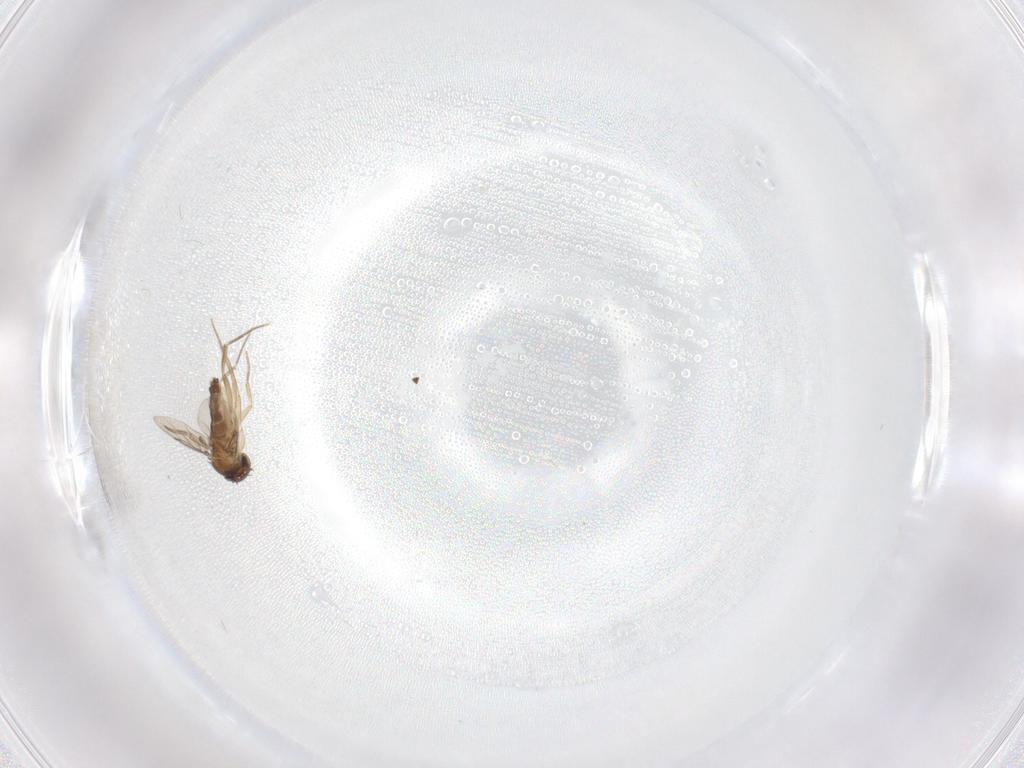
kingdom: Animalia
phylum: Arthropoda
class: Insecta
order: Diptera
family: Phoridae
